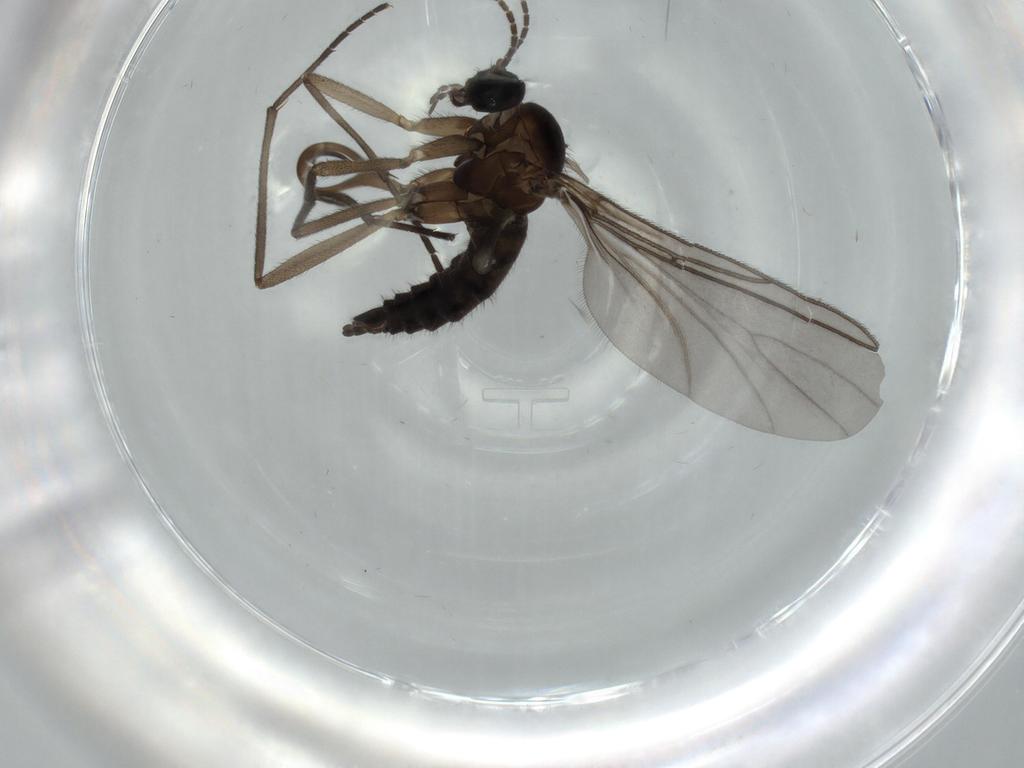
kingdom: Animalia
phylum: Arthropoda
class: Insecta
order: Diptera
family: Sciaridae
